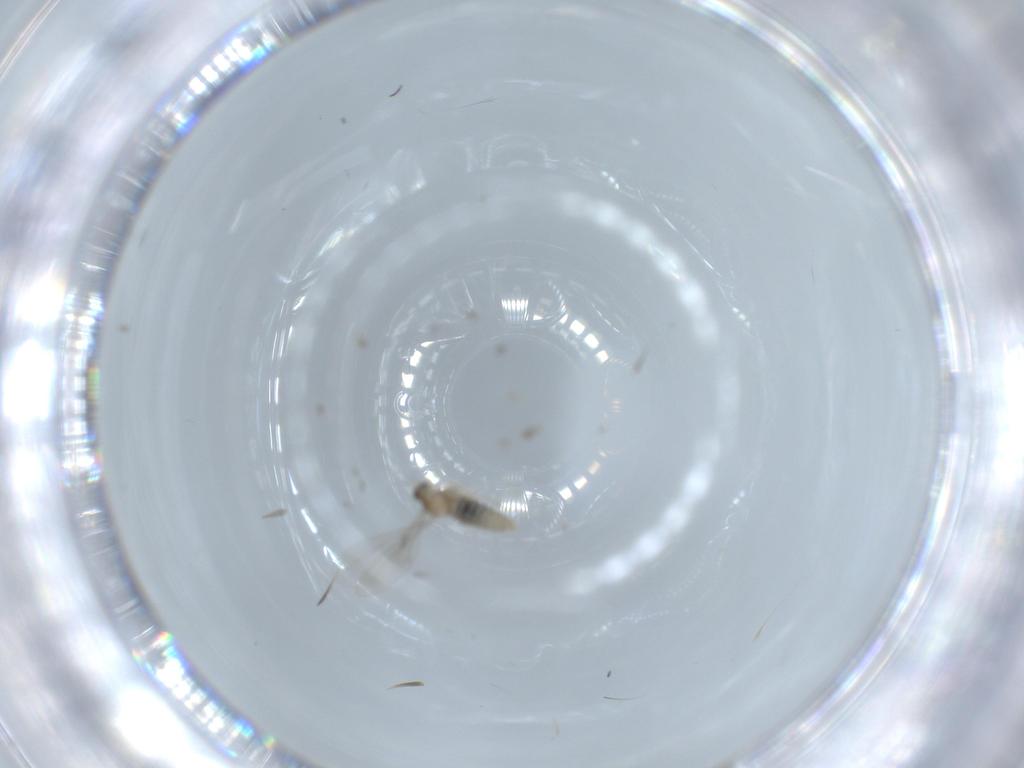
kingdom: Animalia
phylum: Arthropoda
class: Insecta
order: Diptera
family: Cecidomyiidae
